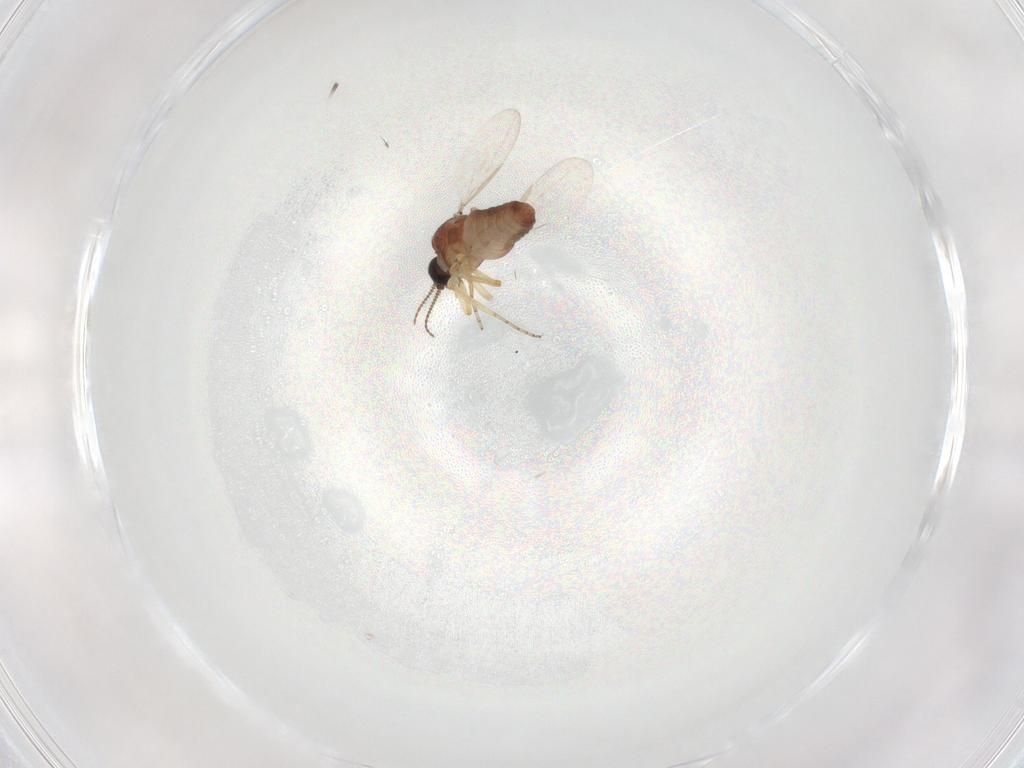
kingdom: Animalia
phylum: Arthropoda
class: Insecta
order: Diptera
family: Ceratopogonidae
